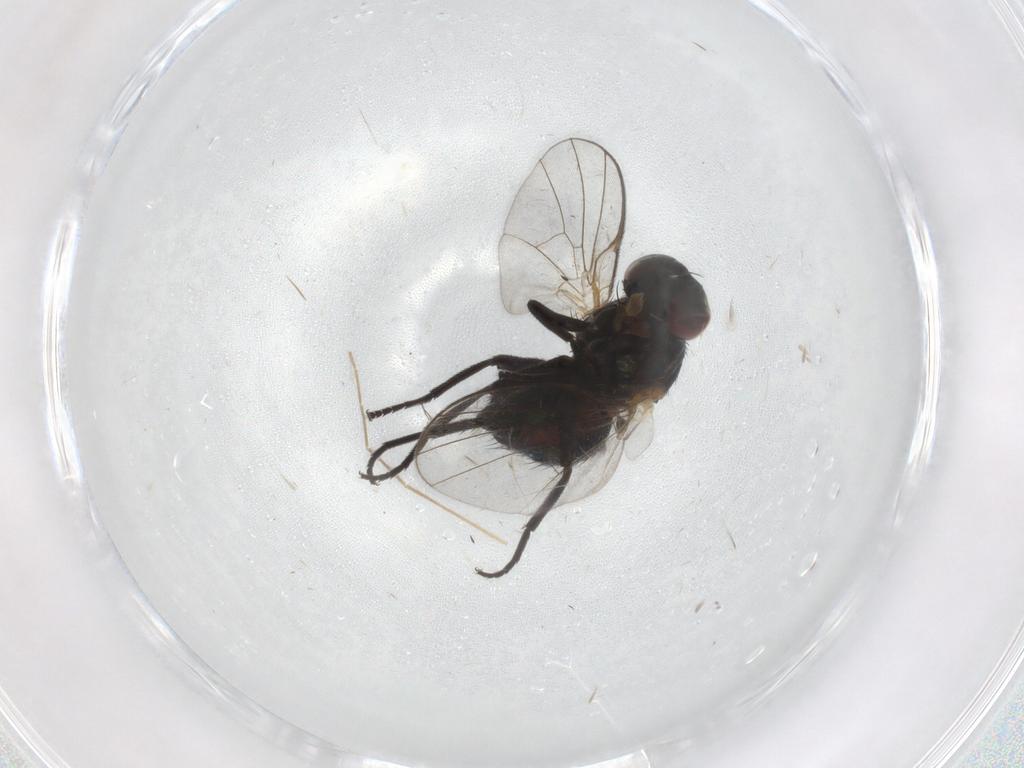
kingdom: Animalia
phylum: Arthropoda
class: Insecta
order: Diptera
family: Agromyzidae
